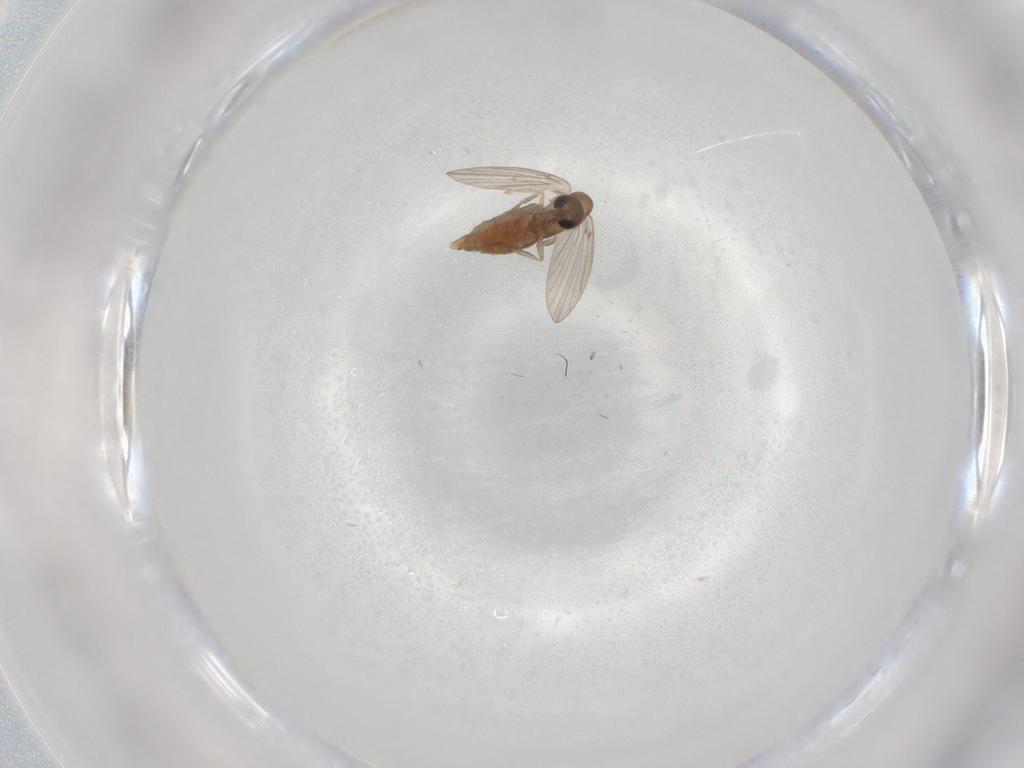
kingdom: Animalia
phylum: Arthropoda
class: Insecta
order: Diptera
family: Phoridae
